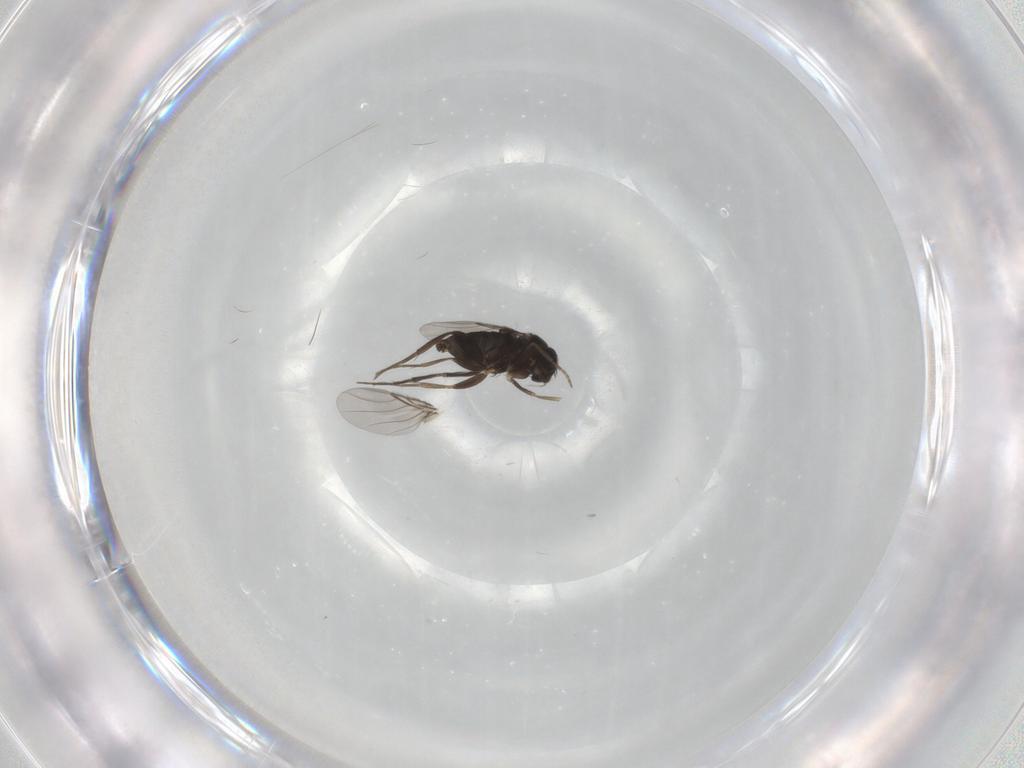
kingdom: Animalia
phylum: Arthropoda
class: Insecta
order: Diptera
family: Phoridae
